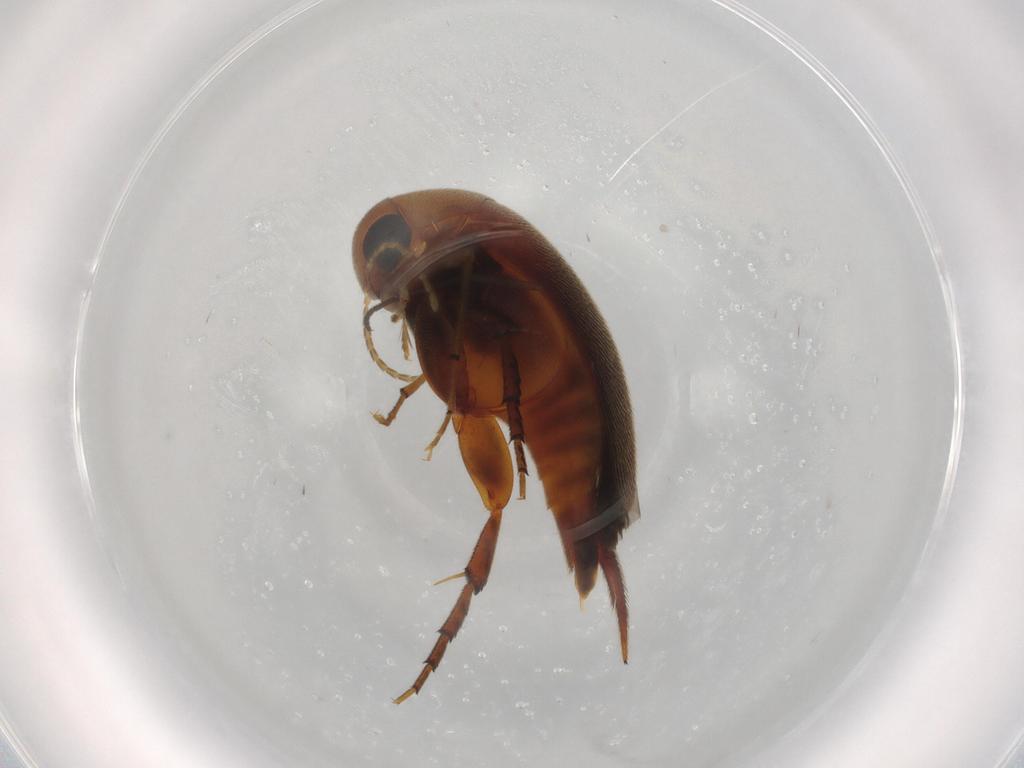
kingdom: Animalia
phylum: Arthropoda
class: Insecta
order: Coleoptera
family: Mordellidae
